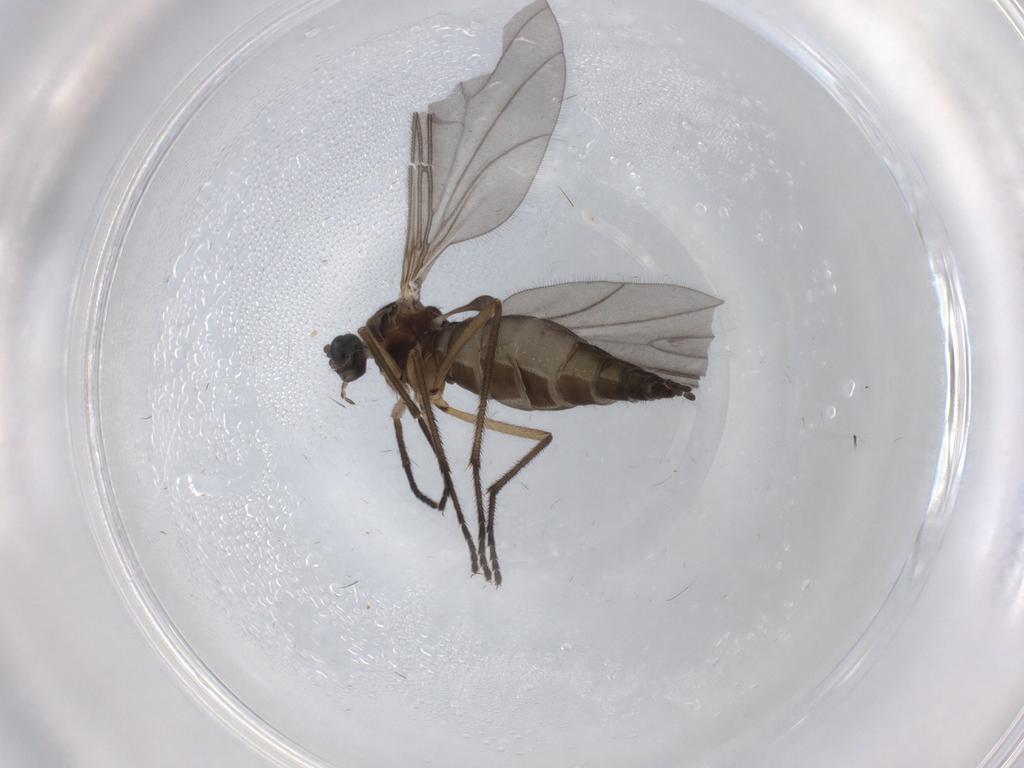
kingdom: Animalia
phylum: Arthropoda
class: Insecta
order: Diptera
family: Sciaridae
